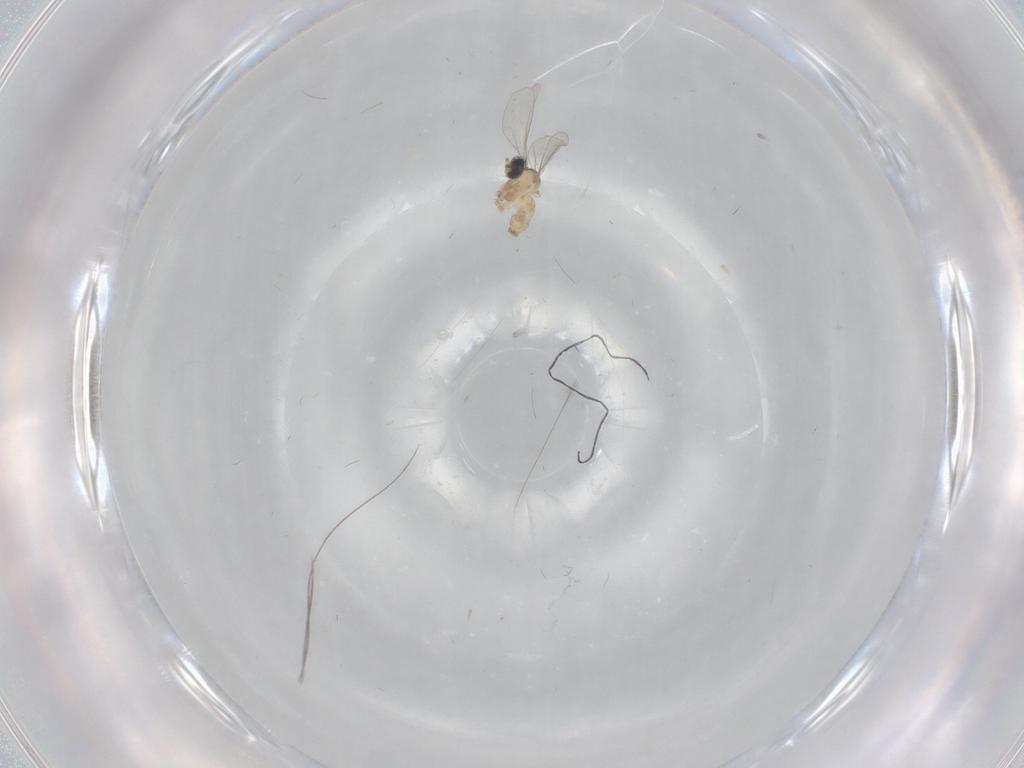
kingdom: Animalia
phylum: Arthropoda
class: Insecta
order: Diptera
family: Cecidomyiidae
